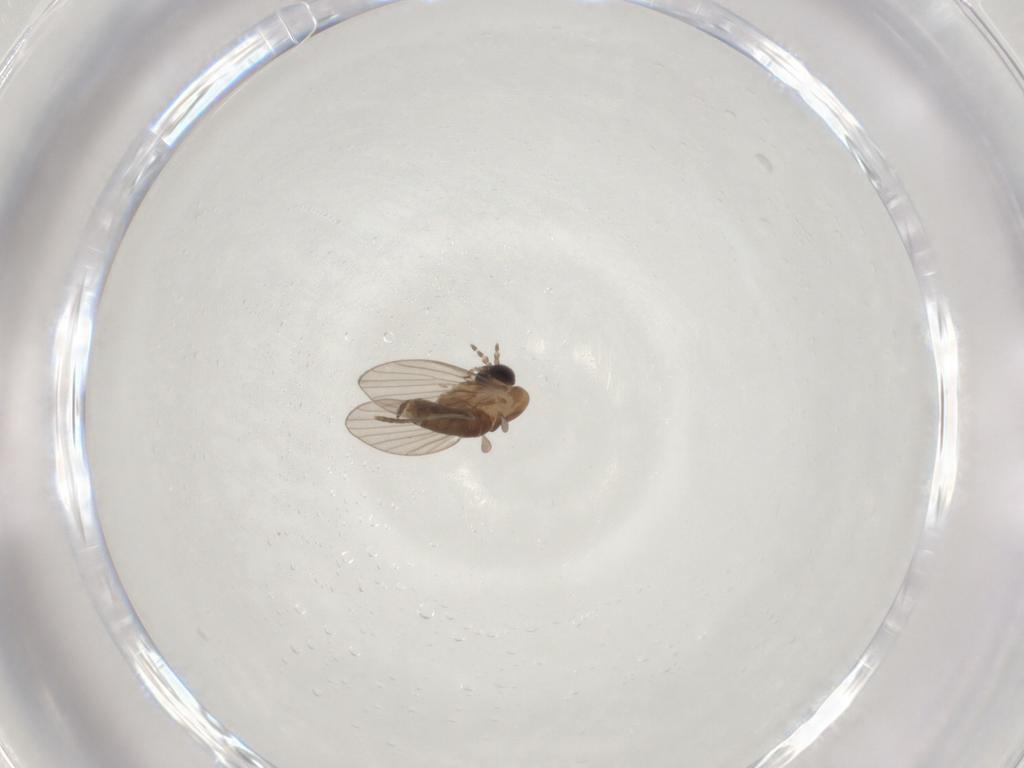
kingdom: Animalia
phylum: Arthropoda
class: Insecta
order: Diptera
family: Psychodidae
